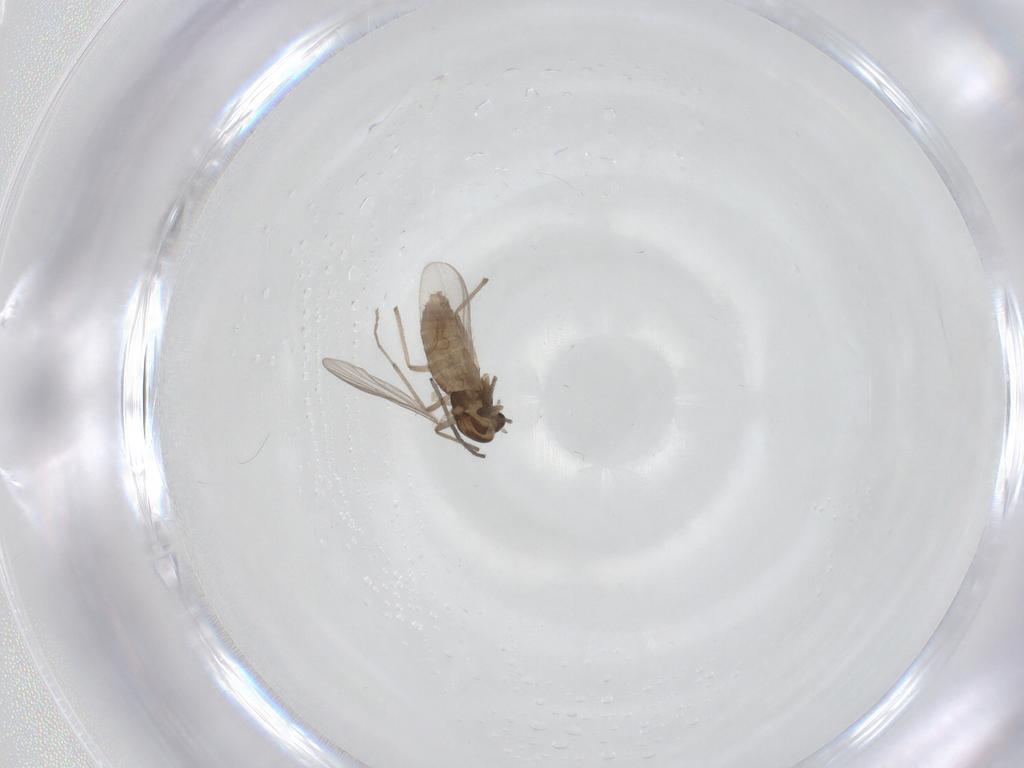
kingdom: Animalia
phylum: Arthropoda
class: Insecta
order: Diptera
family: Chironomidae
